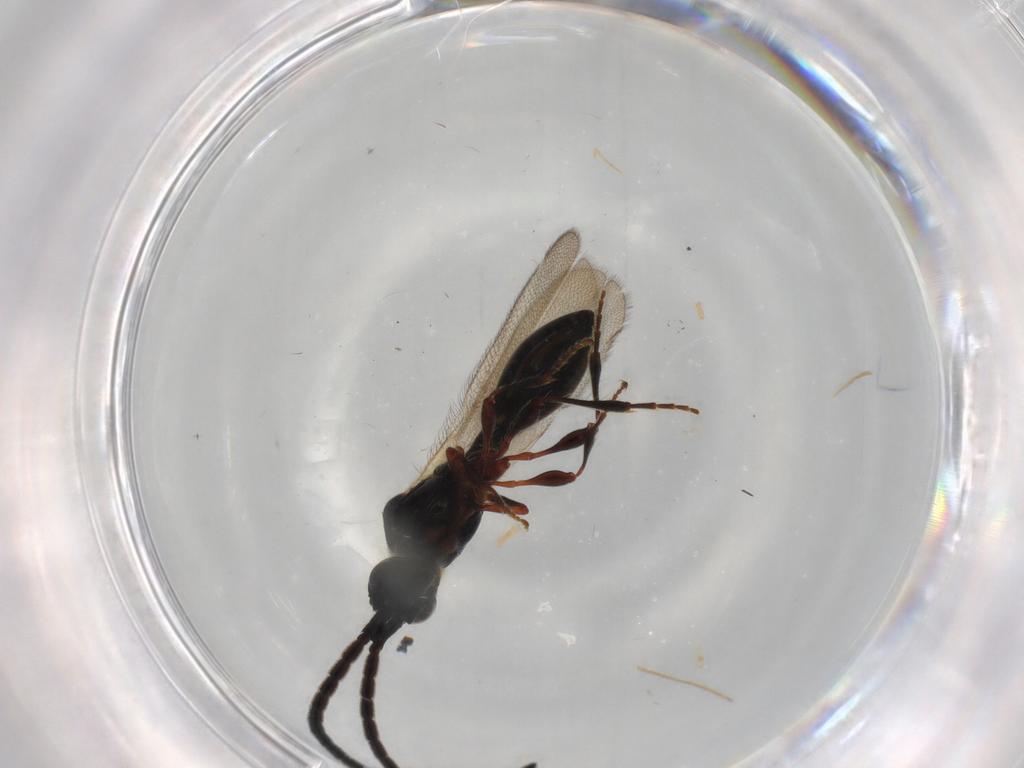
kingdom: Animalia
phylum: Arthropoda
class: Insecta
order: Hymenoptera
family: Diapriidae
